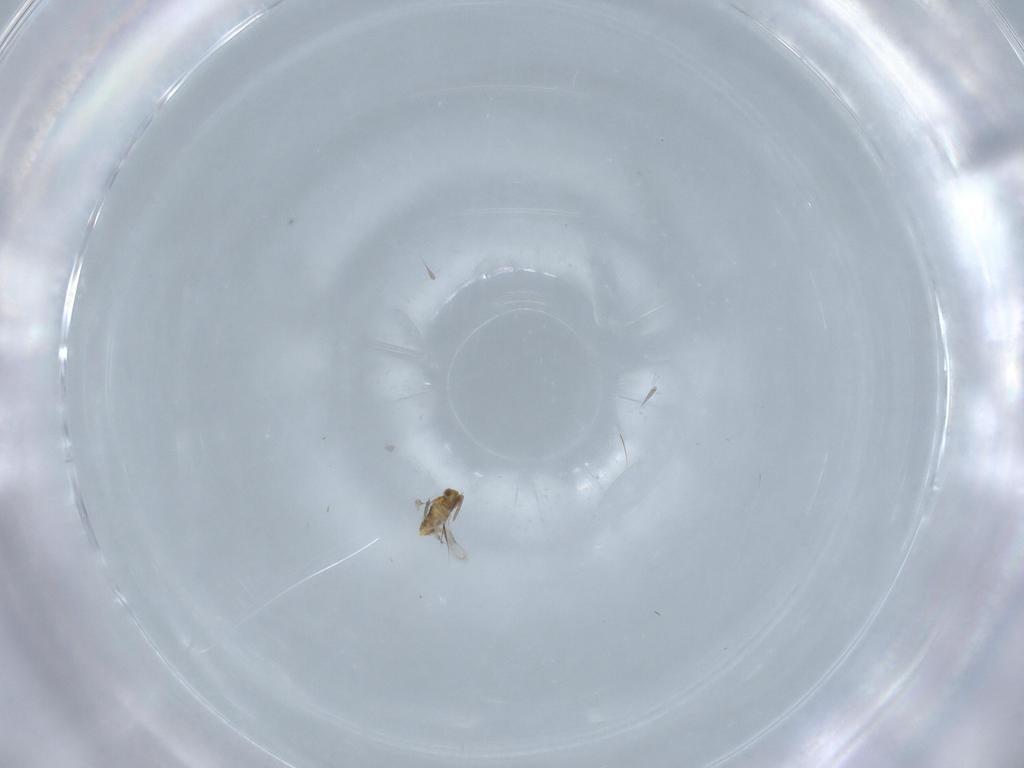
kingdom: Animalia
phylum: Arthropoda
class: Insecta
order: Hymenoptera
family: Aphelinidae
